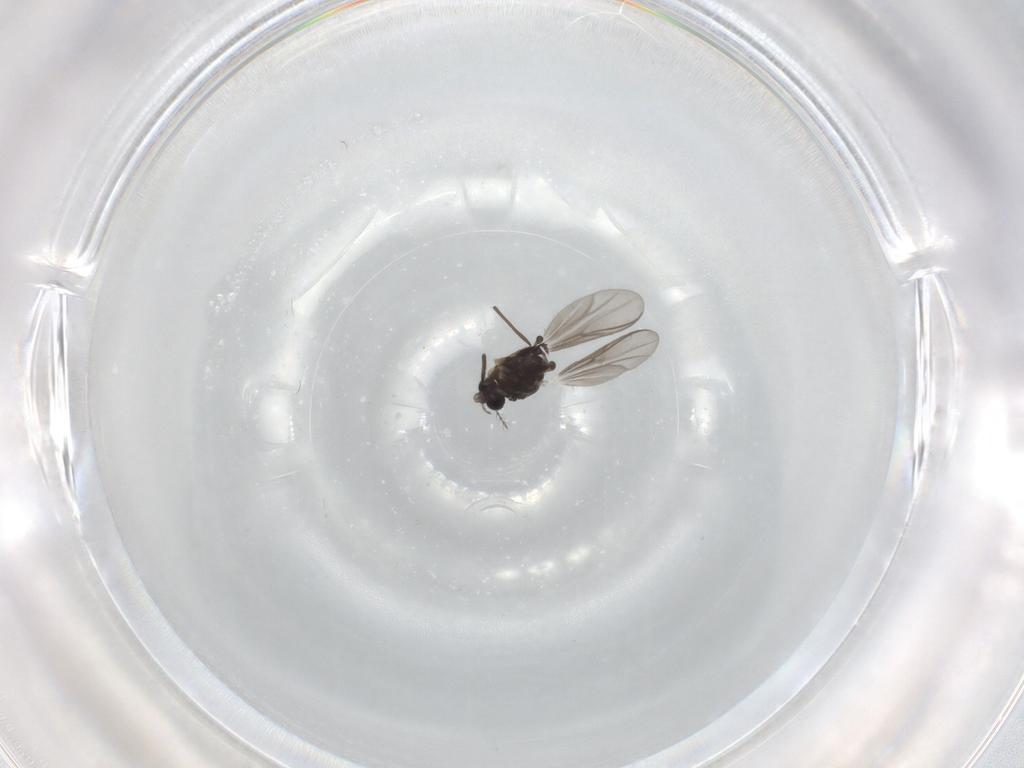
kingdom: Animalia
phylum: Arthropoda
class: Insecta
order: Diptera
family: Chironomidae
